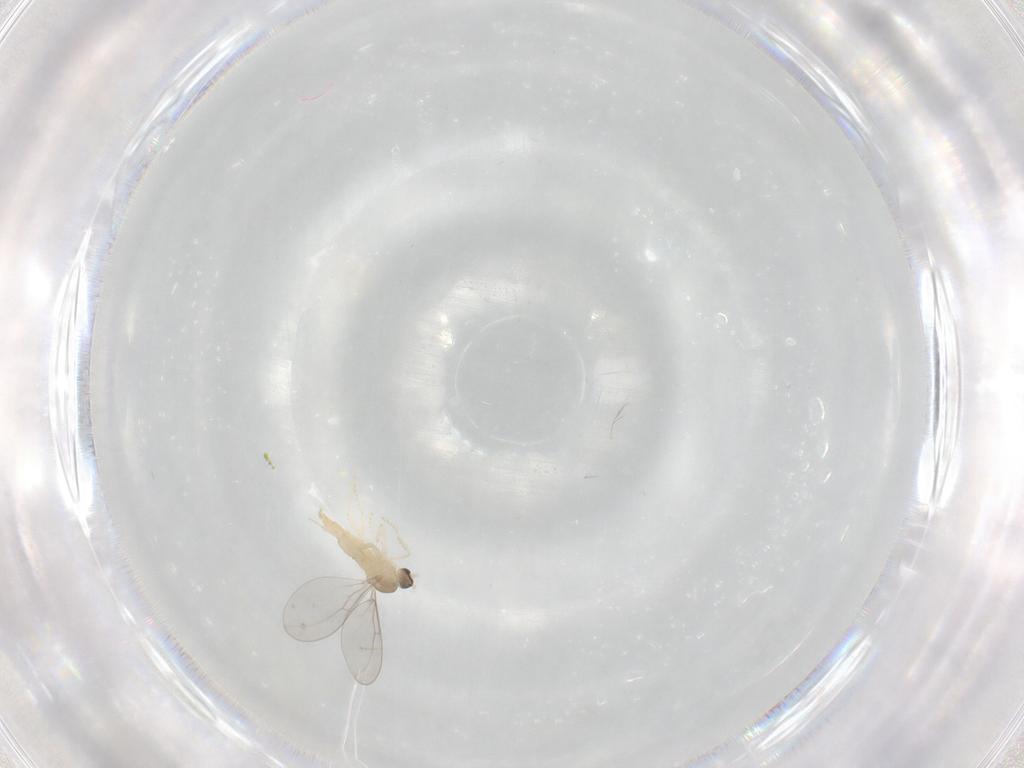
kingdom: Animalia
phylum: Arthropoda
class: Insecta
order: Diptera
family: Cecidomyiidae
